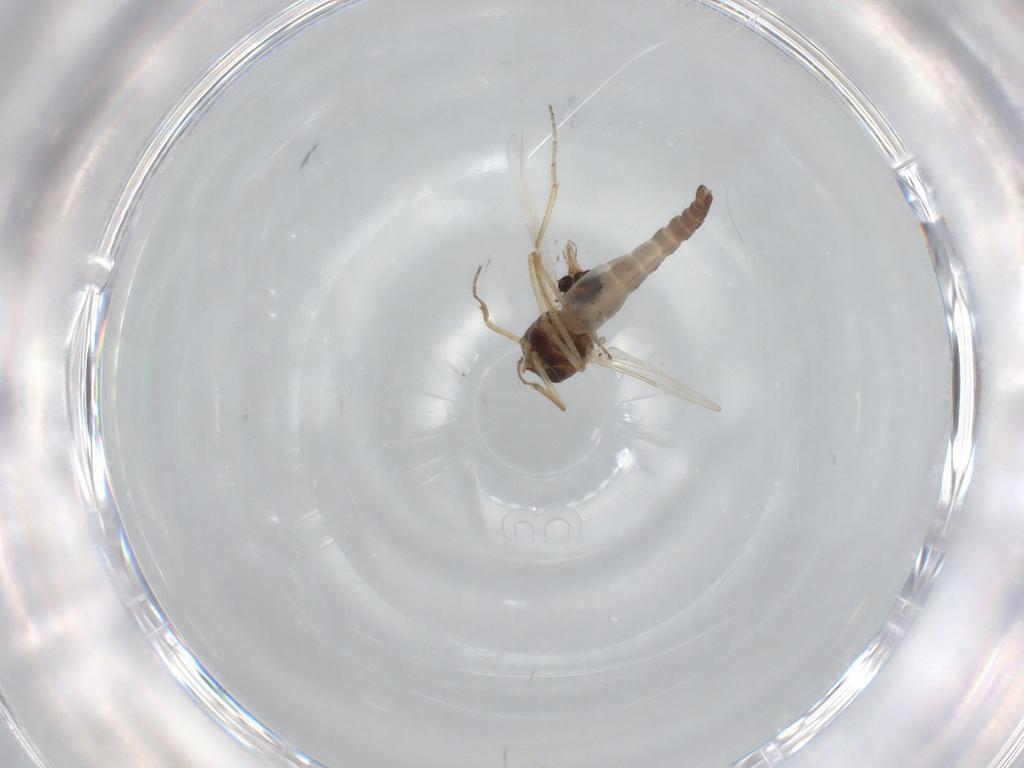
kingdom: Animalia
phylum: Arthropoda
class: Insecta
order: Diptera
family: Ceratopogonidae
